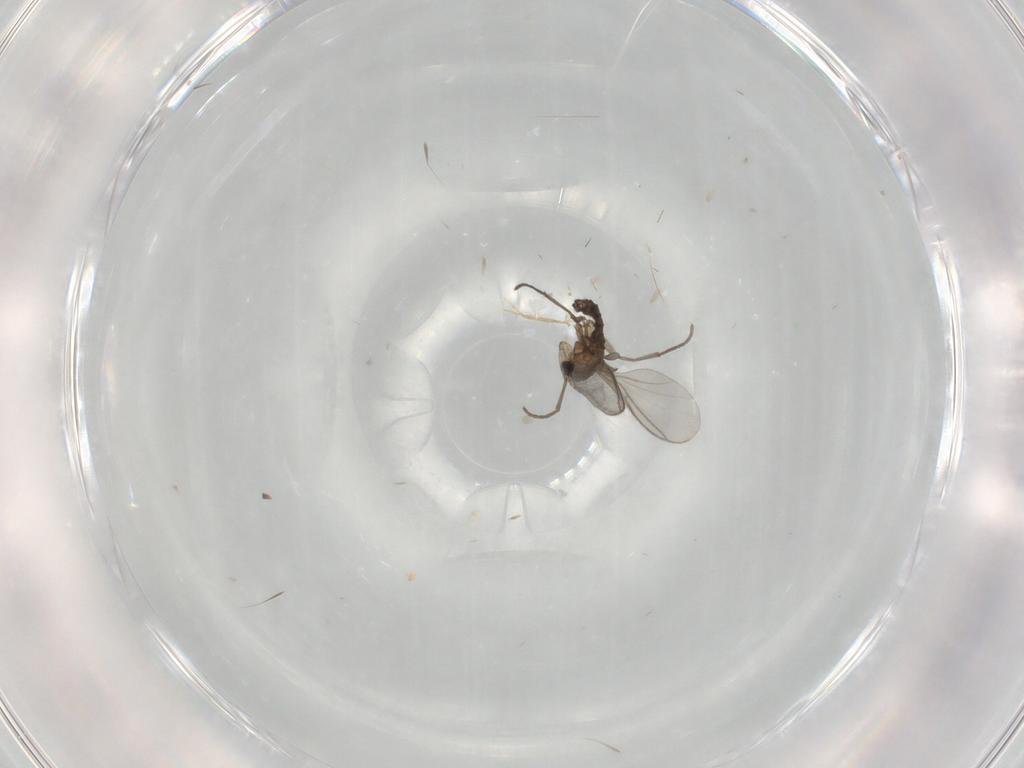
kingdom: Animalia
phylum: Arthropoda
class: Insecta
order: Diptera
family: Sciaridae
